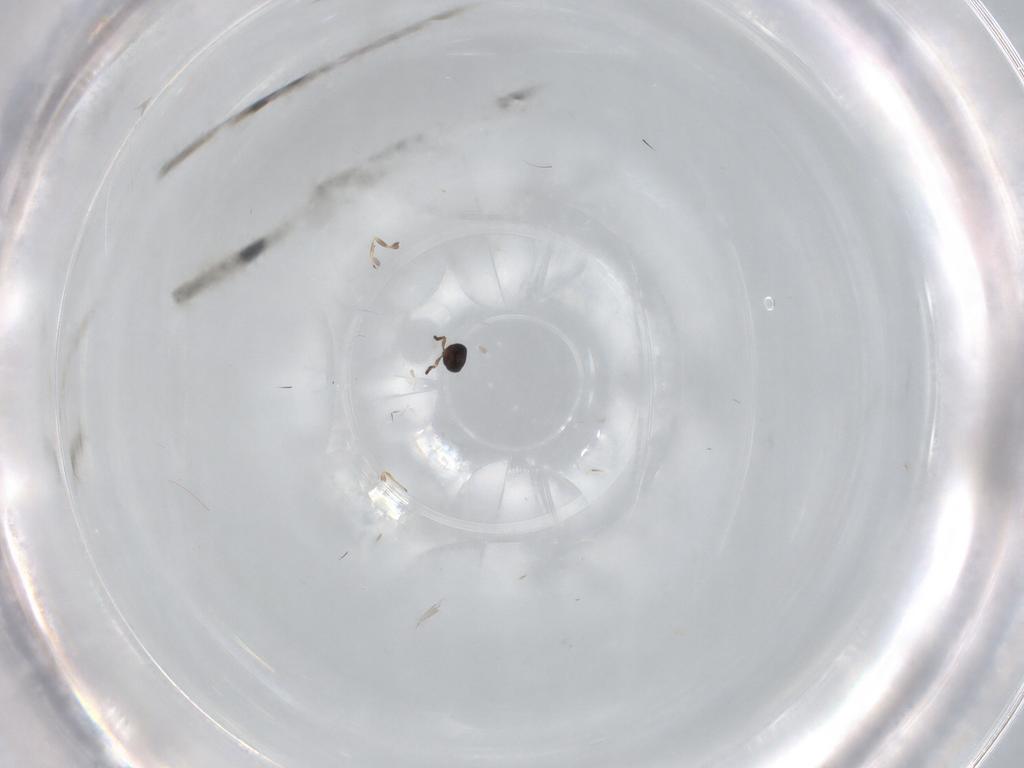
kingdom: Animalia
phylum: Arthropoda
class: Insecta
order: Hymenoptera
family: Scelionidae
